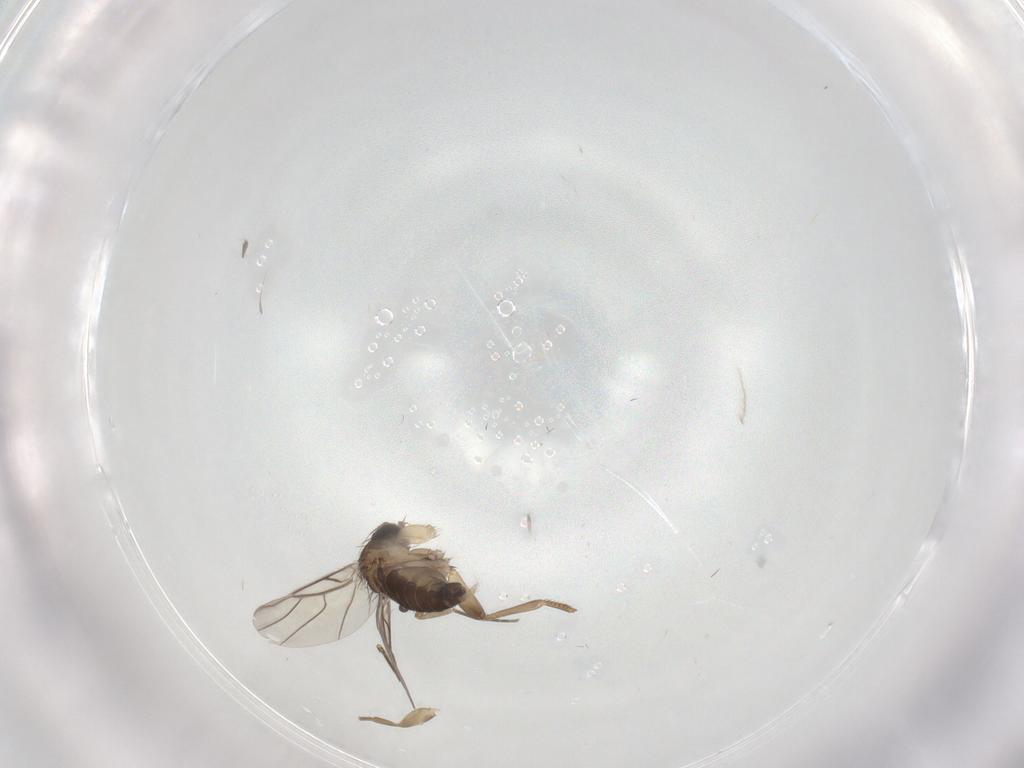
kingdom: Animalia
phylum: Arthropoda
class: Insecta
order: Diptera
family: Phoridae
